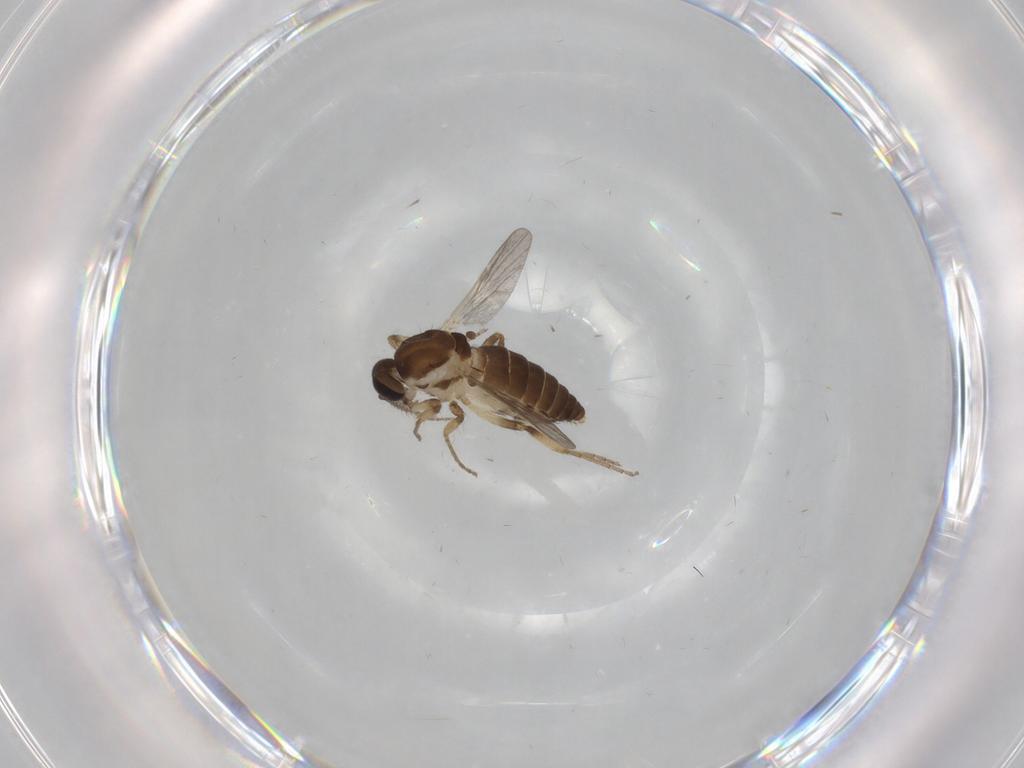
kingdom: Animalia
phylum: Arthropoda
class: Insecta
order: Diptera
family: Ceratopogonidae
